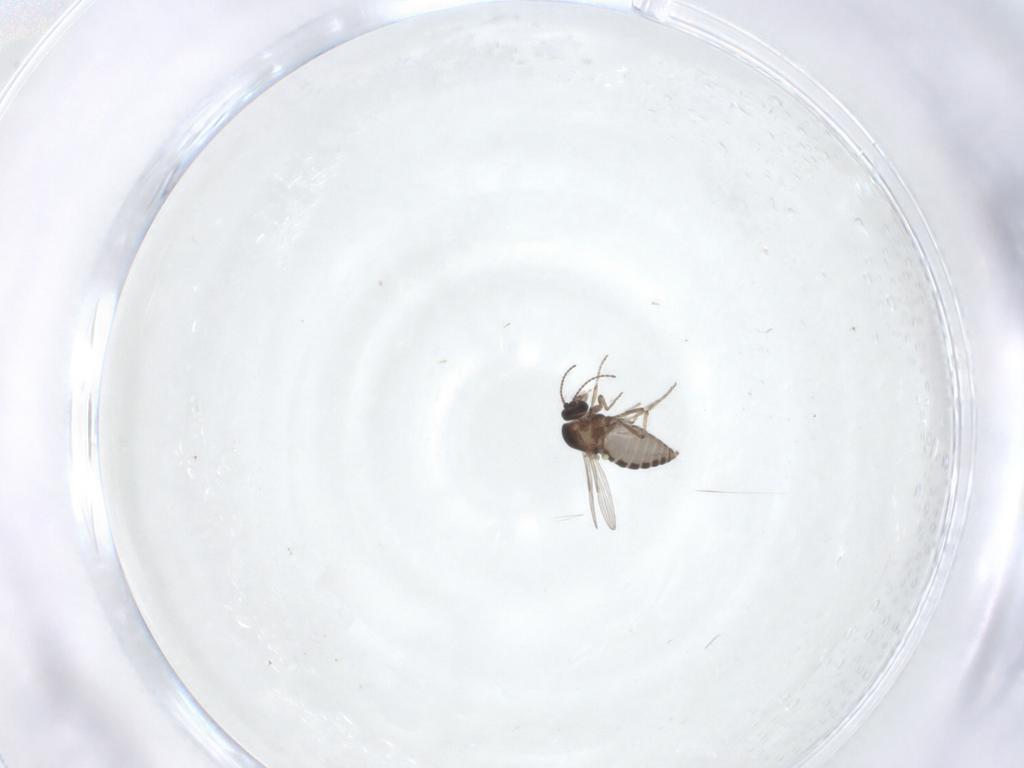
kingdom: Animalia
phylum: Arthropoda
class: Insecta
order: Diptera
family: Ceratopogonidae
